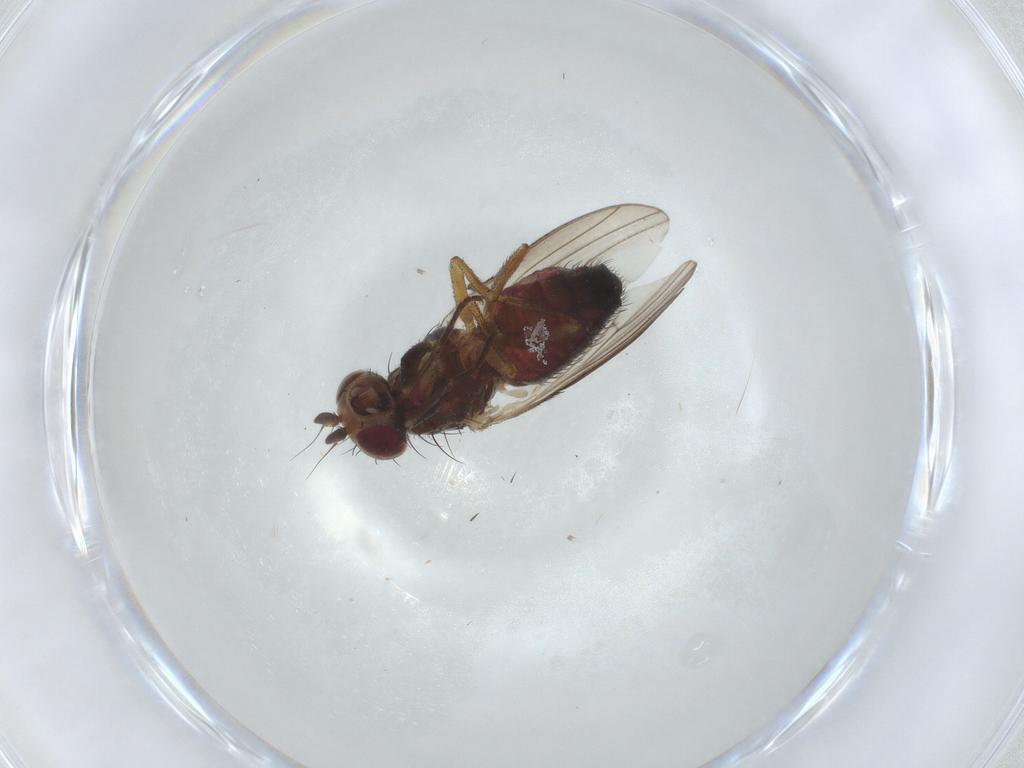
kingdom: Animalia
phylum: Arthropoda
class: Insecta
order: Diptera
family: Heleomyzidae
